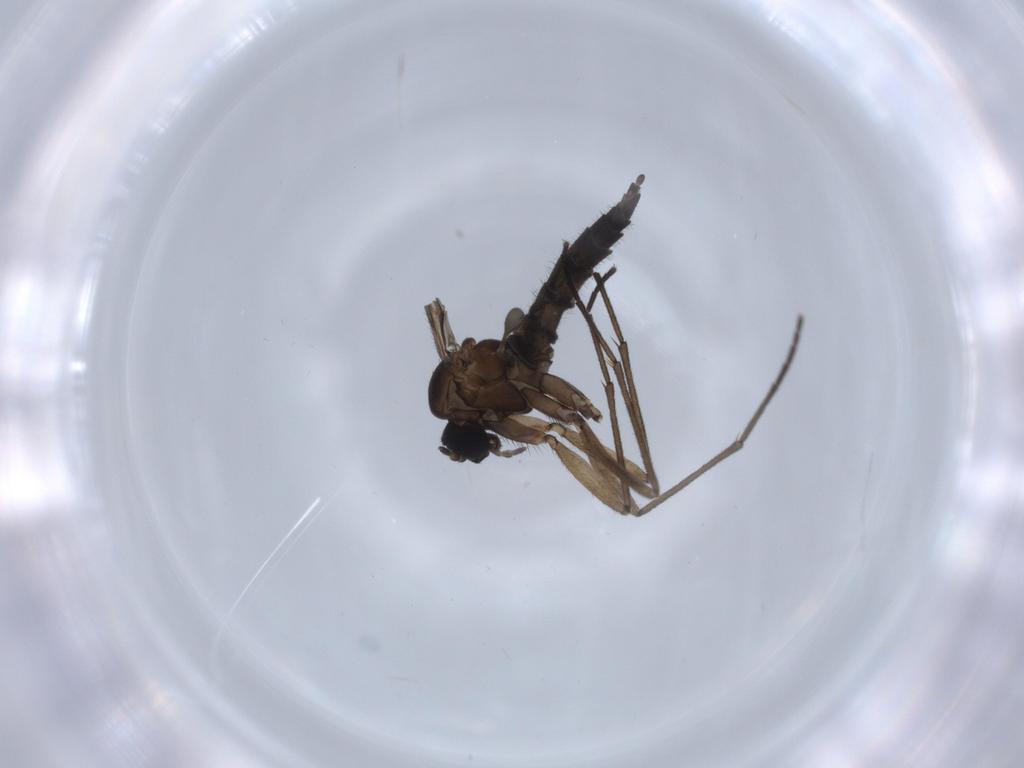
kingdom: Animalia
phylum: Arthropoda
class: Insecta
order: Diptera
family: Sciaridae
